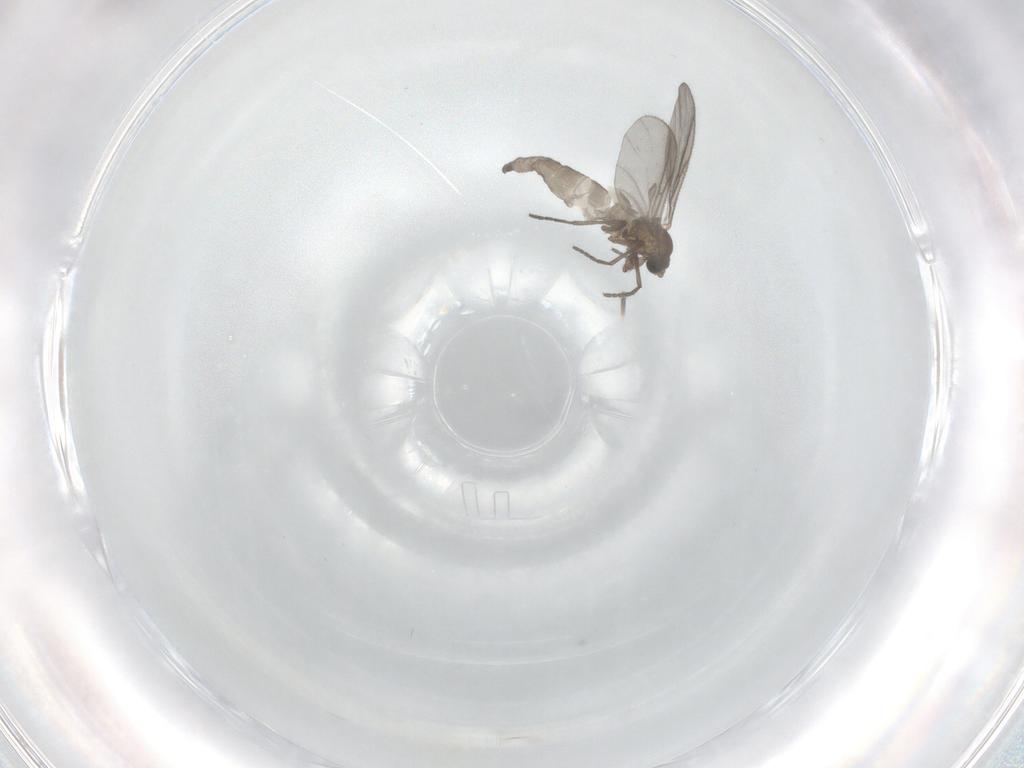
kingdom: Animalia
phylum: Arthropoda
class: Insecta
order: Diptera
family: Sciaridae
